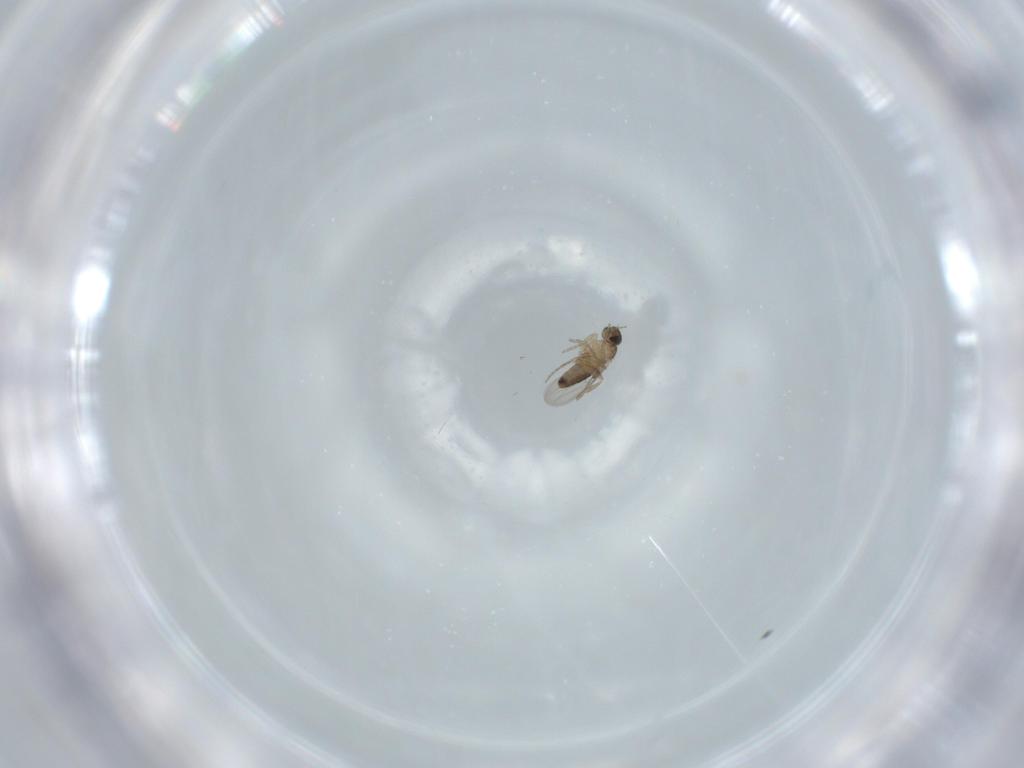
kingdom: Animalia
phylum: Arthropoda
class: Insecta
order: Diptera
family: Phoridae
